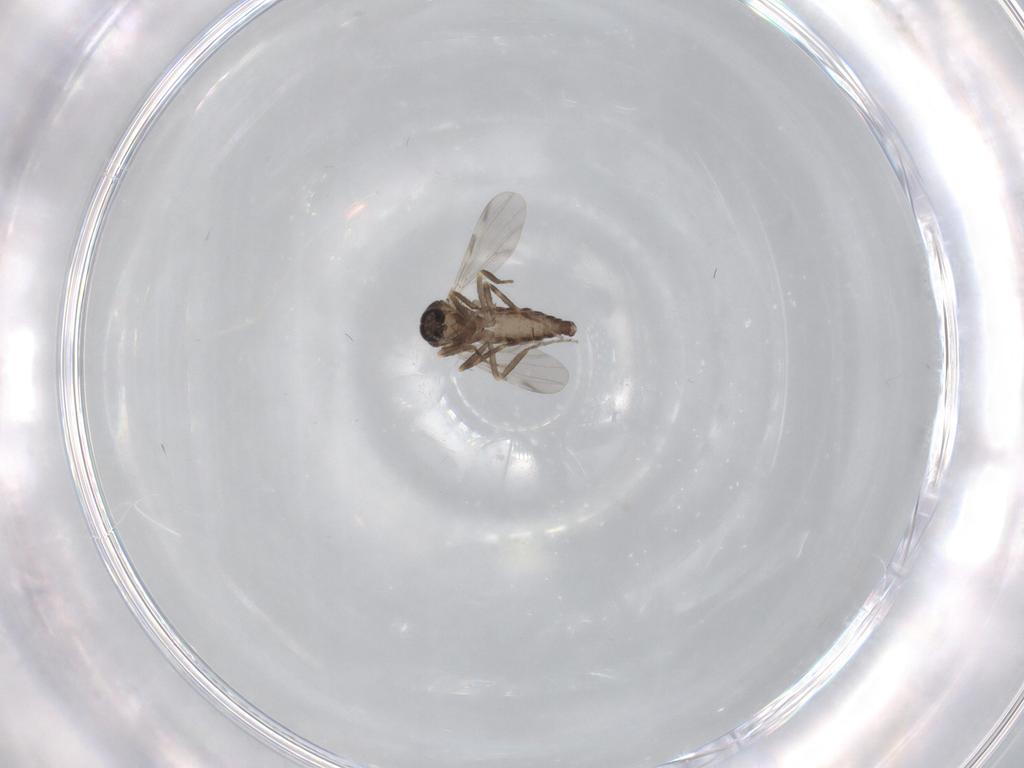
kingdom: Animalia
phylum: Arthropoda
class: Insecta
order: Diptera
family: Ceratopogonidae
